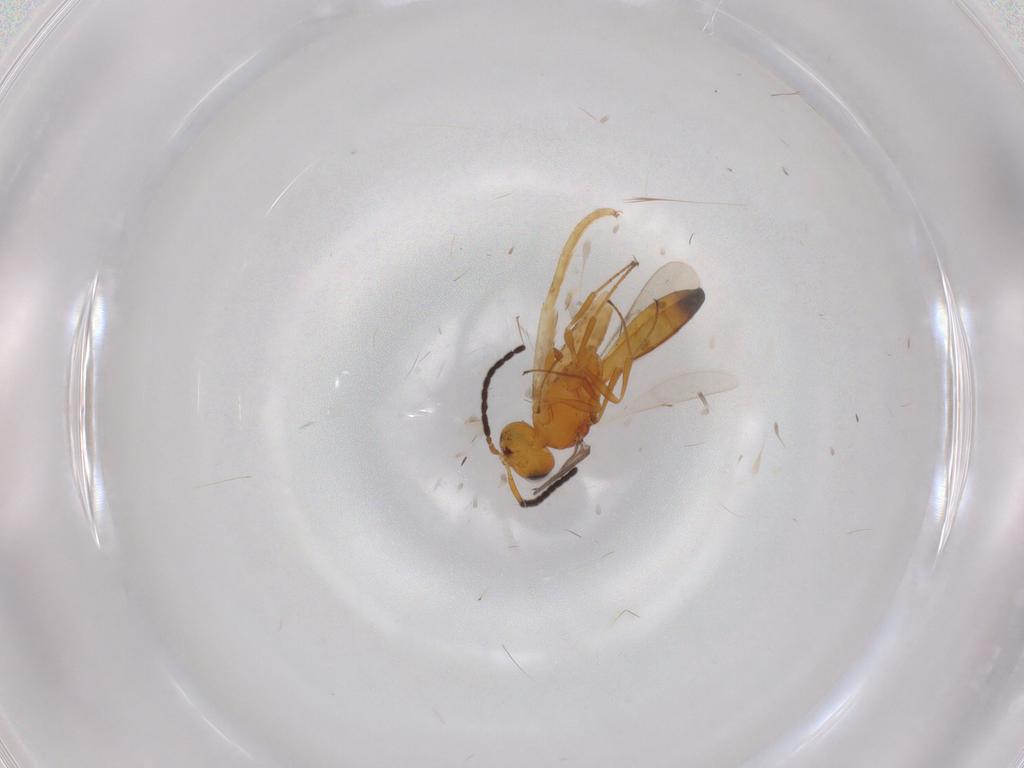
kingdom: Animalia
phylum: Arthropoda
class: Insecta
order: Hymenoptera
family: Scelionidae
